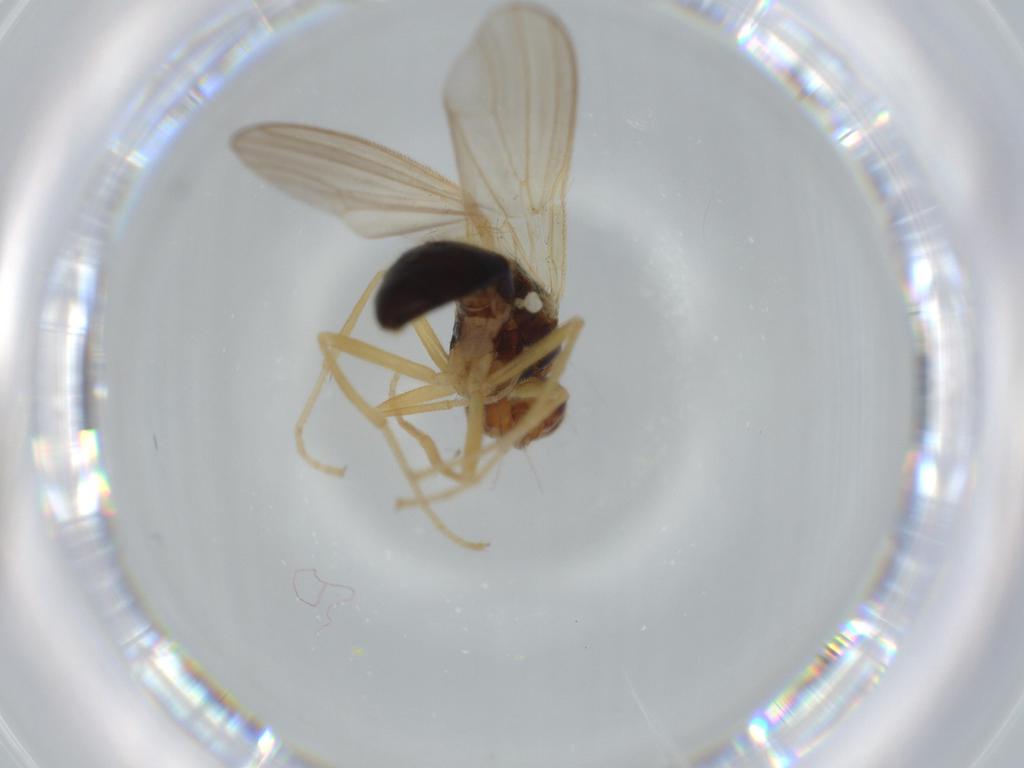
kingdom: Animalia
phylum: Arthropoda
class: Insecta
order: Diptera
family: Psilidae
